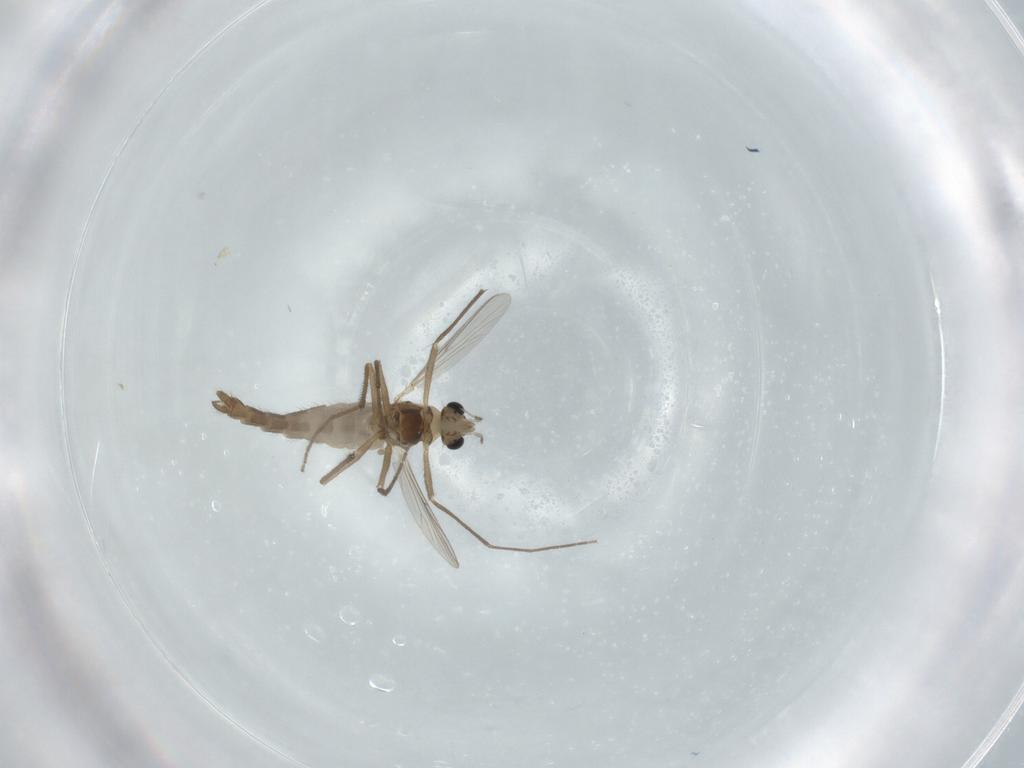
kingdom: Animalia
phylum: Arthropoda
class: Insecta
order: Diptera
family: Chironomidae
